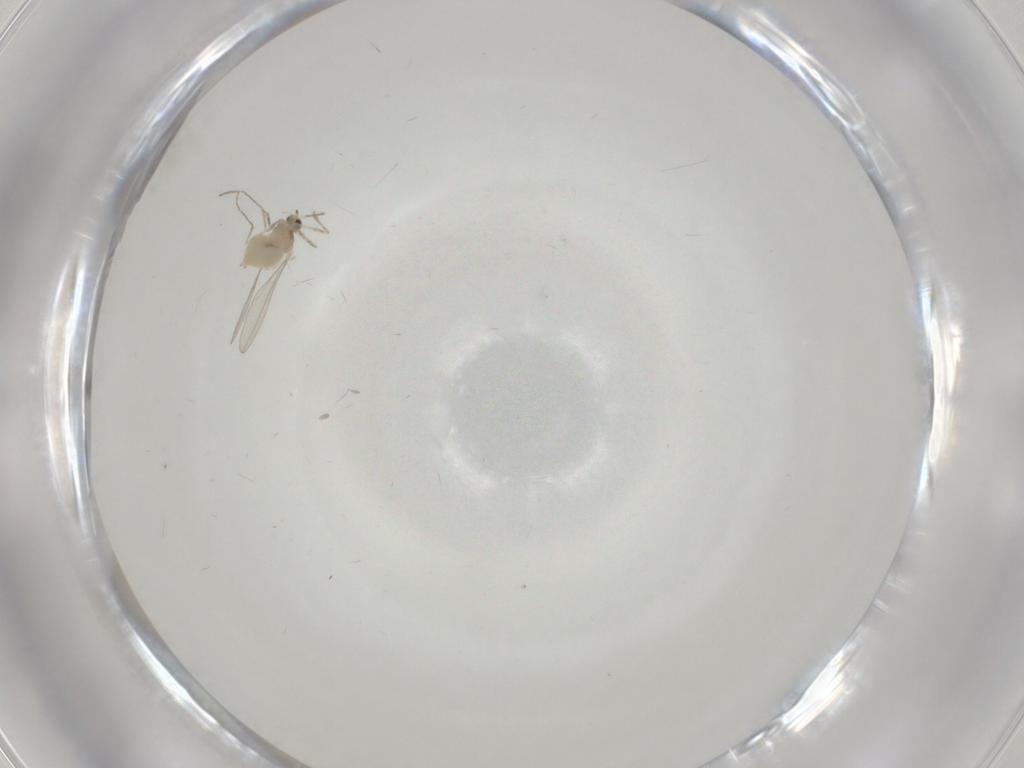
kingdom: Animalia
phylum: Arthropoda
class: Insecta
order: Diptera
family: Cecidomyiidae
